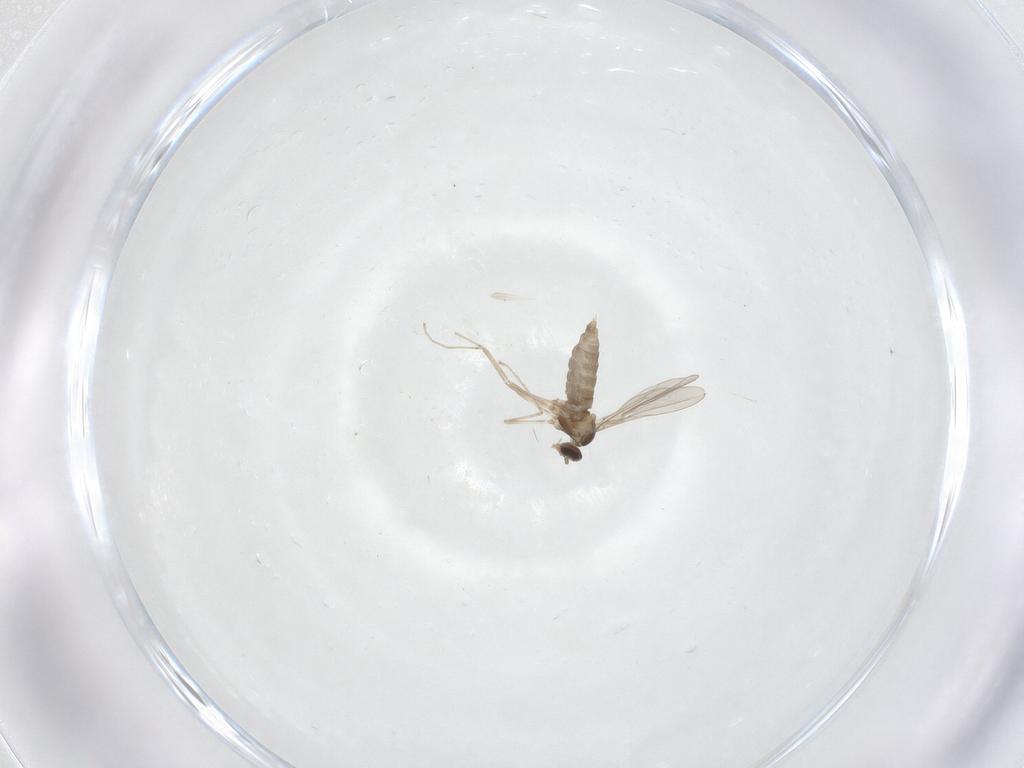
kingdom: Animalia
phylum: Arthropoda
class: Insecta
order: Diptera
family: Cecidomyiidae
